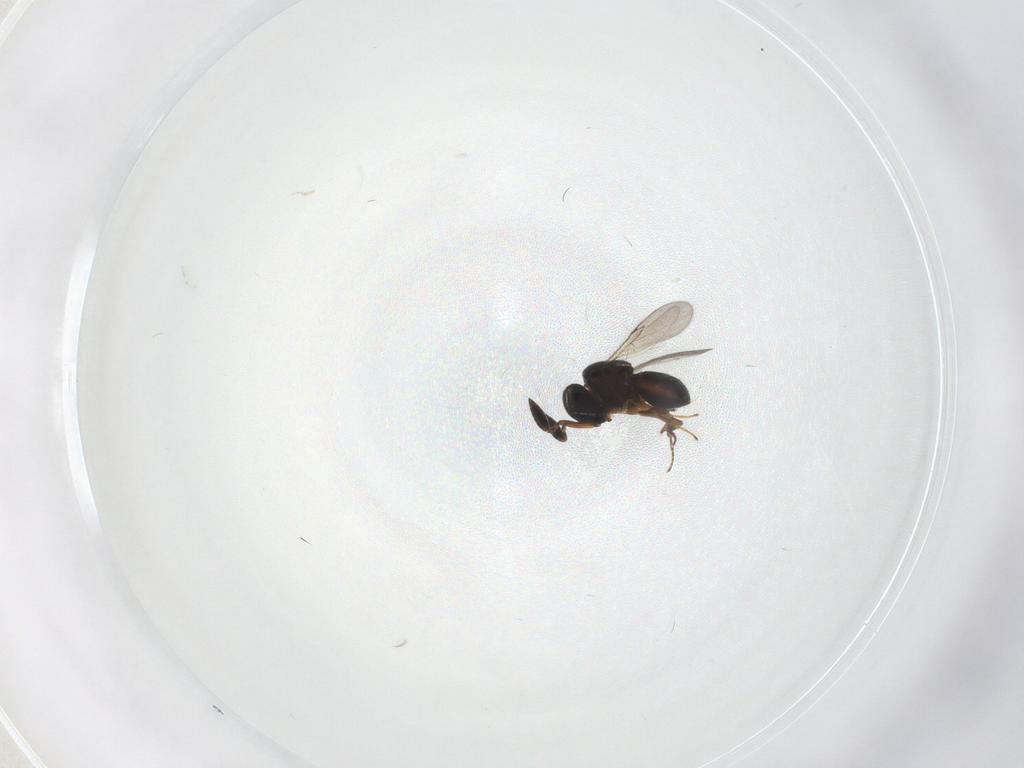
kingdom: Animalia
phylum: Arthropoda
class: Insecta
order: Hymenoptera
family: Scelionidae
